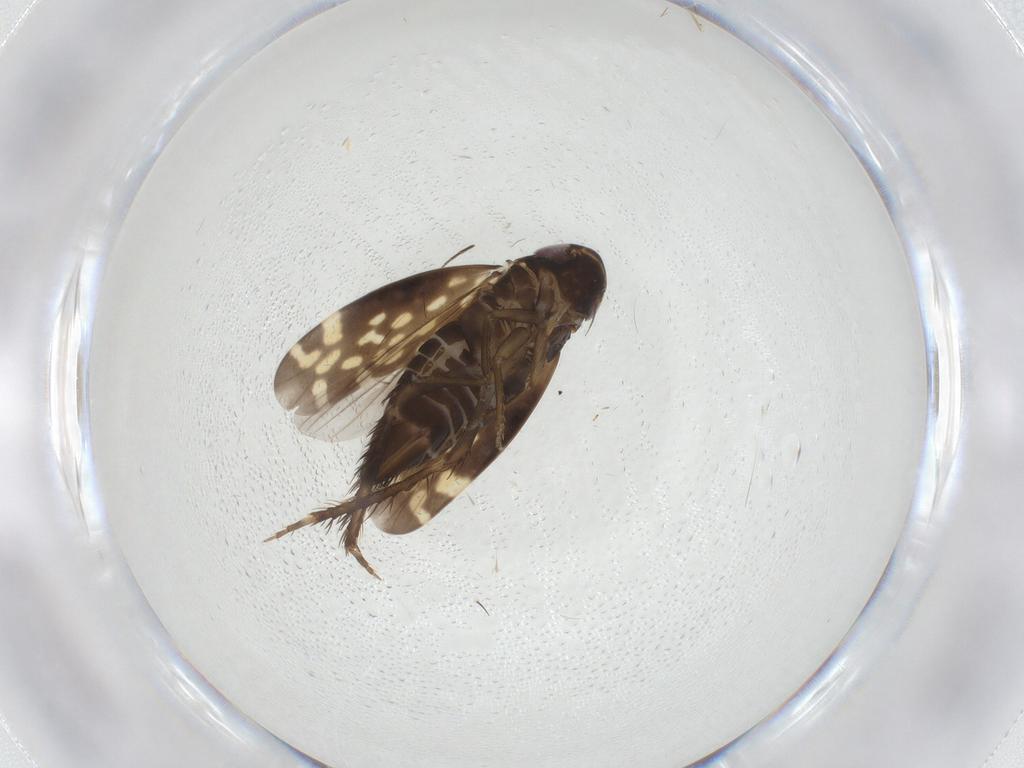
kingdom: Animalia
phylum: Arthropoda
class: Insecta
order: Hemiptera
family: Cicadellidae
